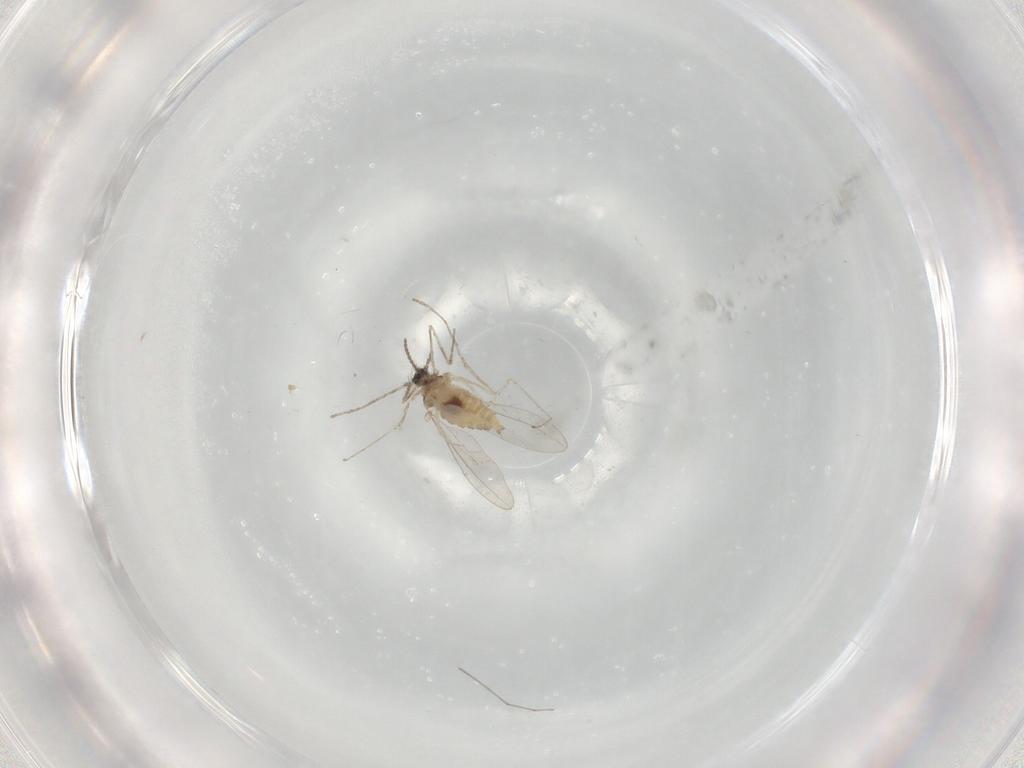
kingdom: Animalia
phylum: Arthropoda
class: Insecta
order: Diptera
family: Cecidomyiidae
